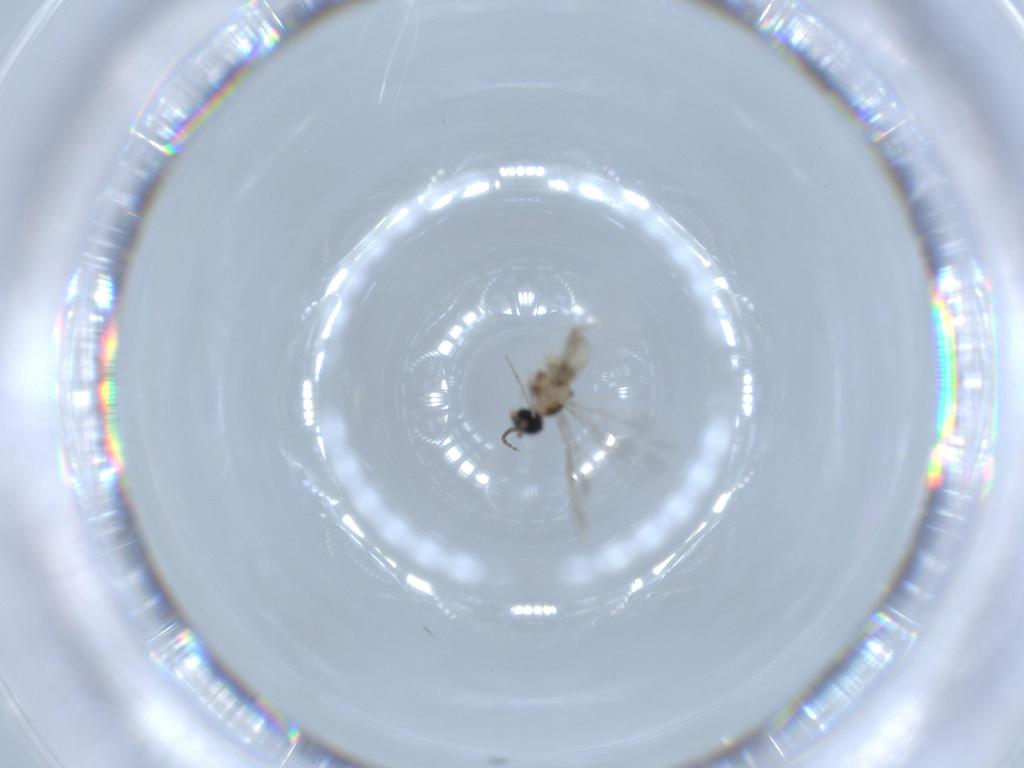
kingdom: Animalia
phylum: Arthropoda
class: Insecta
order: Diptera
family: Cecidomyiidae
